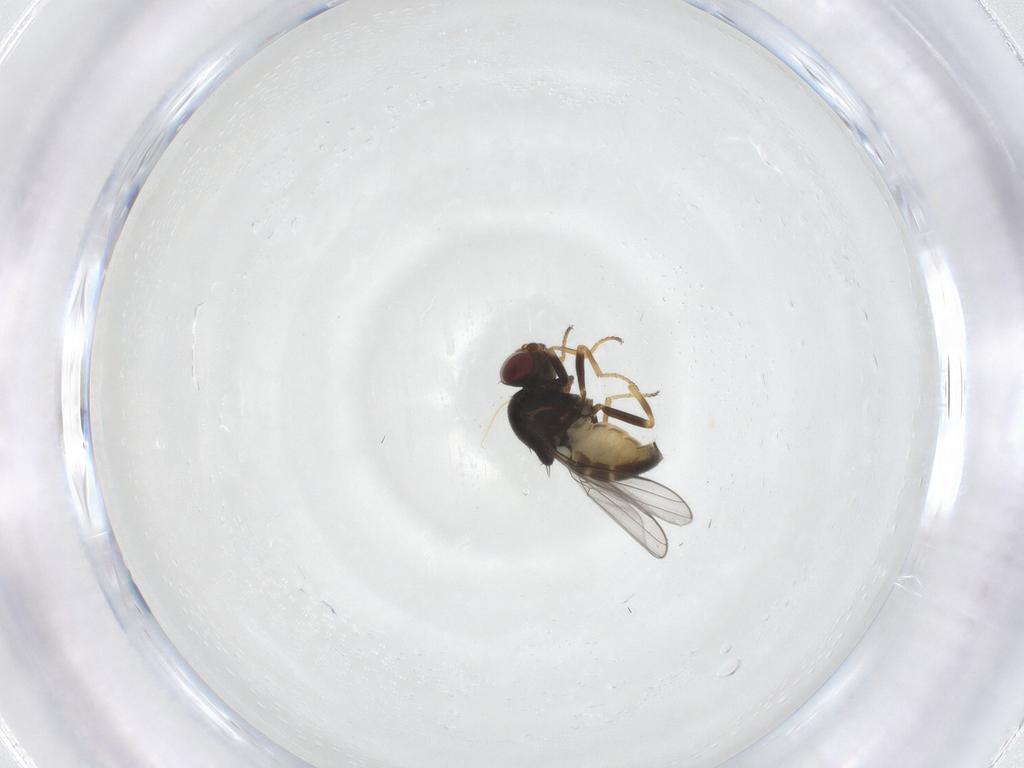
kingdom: Animalia
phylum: Arthropoda
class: Insecta
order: Diptera
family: Chloropidae
